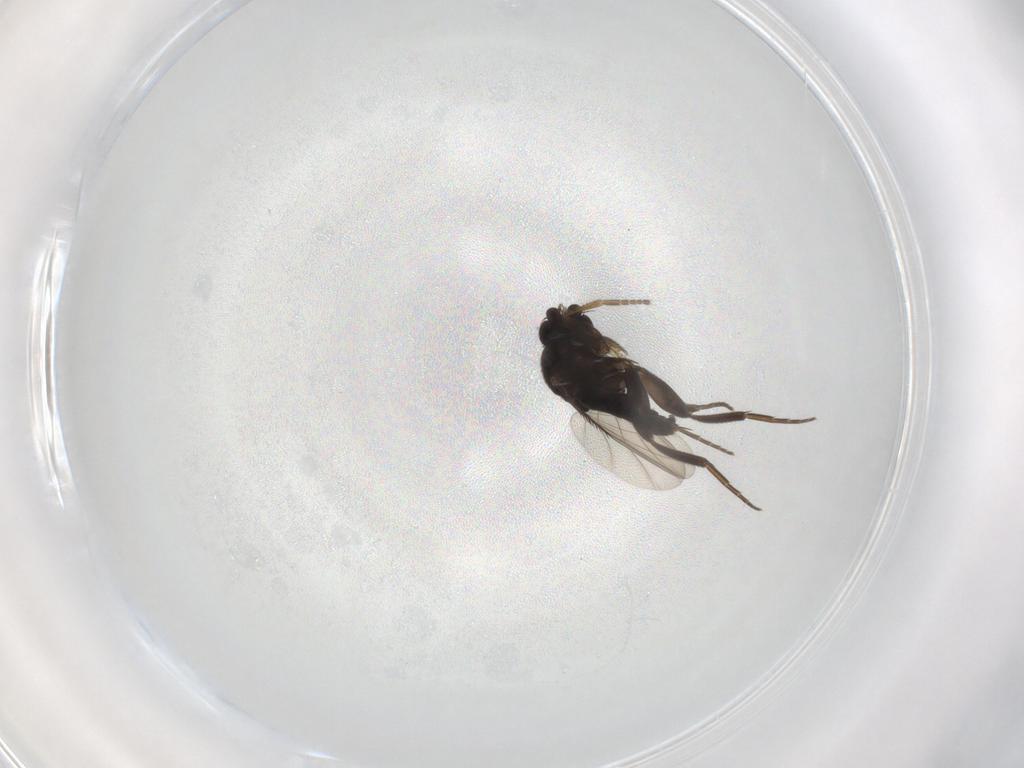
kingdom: Animalia
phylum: Arthropoda
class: Insecta
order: Diptera
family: Phoridae
